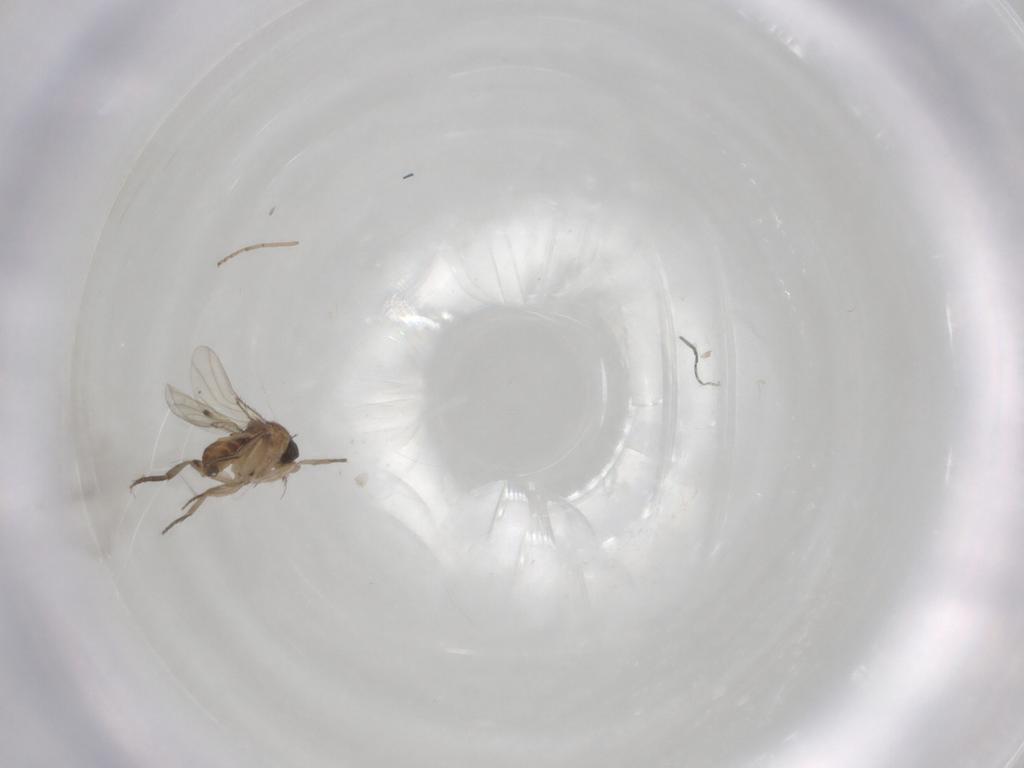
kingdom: Animalia
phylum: Arthropoda
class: Insecta
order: Diptera
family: Chironomidae
